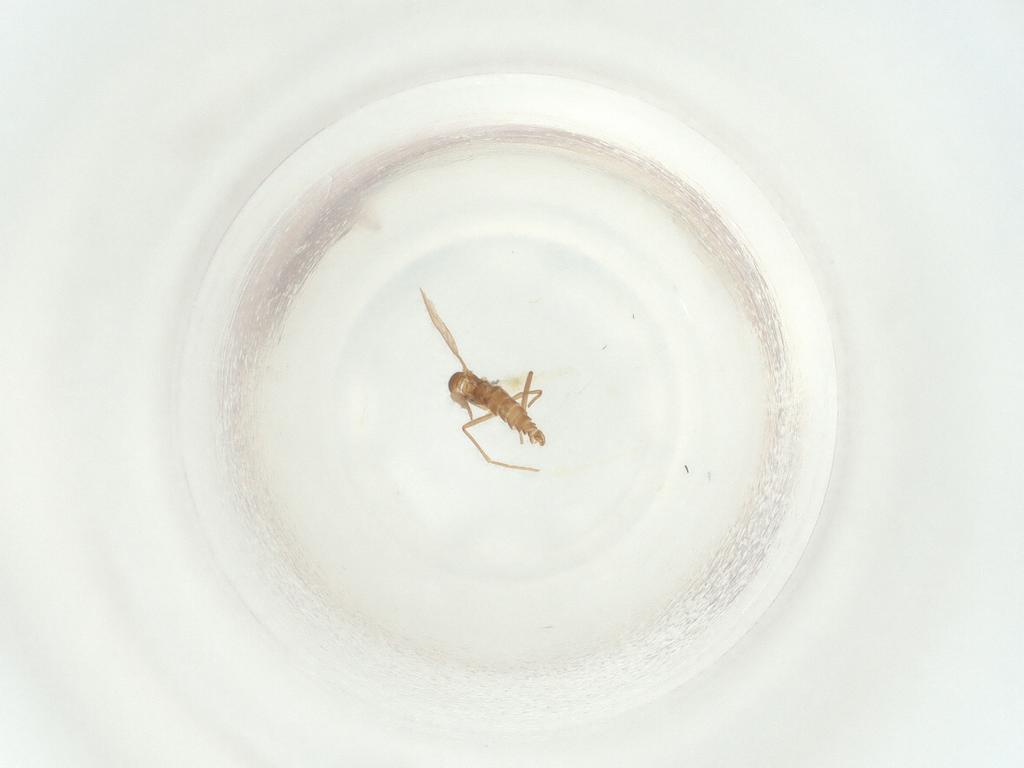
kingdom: Animalia
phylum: Arthropoda
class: Insecta
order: Diptera
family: Sciaridae
